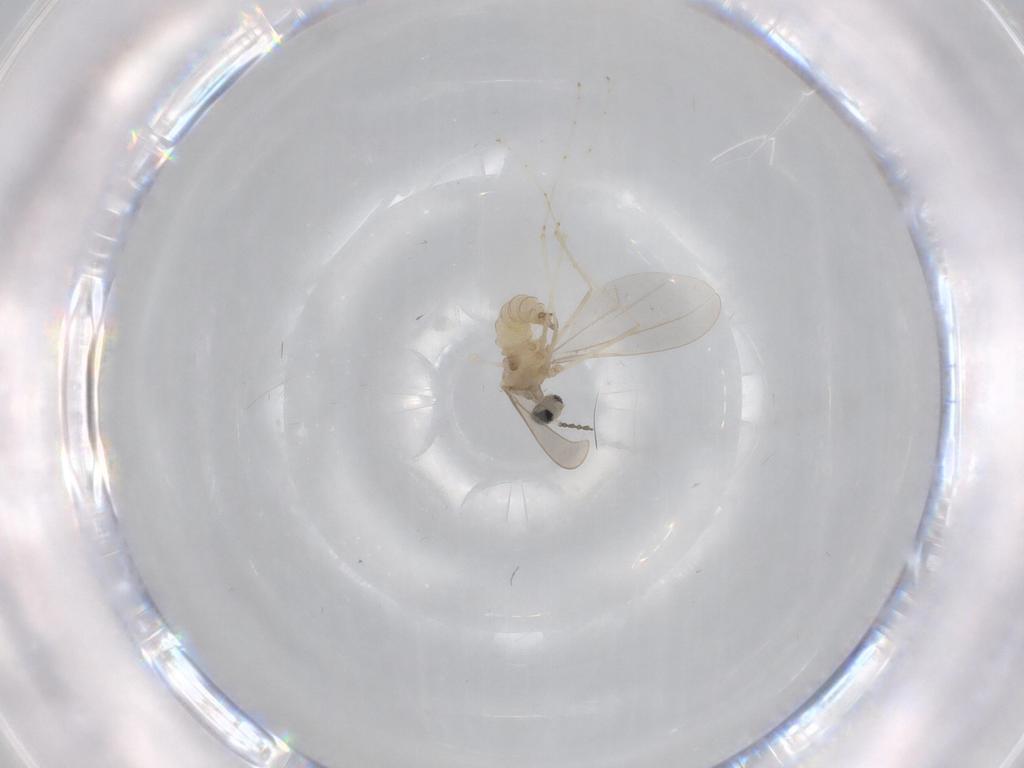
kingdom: Animalia
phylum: Arthropoda
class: Insecta
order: Diptera
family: Cecidomyiidae
